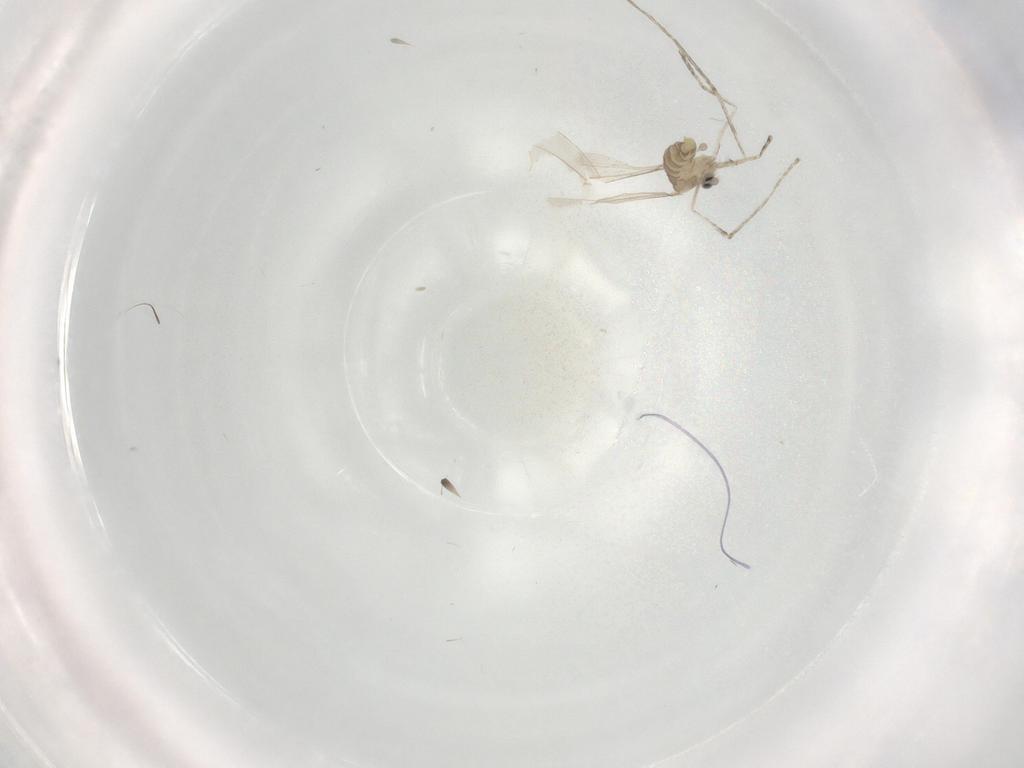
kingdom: Animalia
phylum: Arthropoda
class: Insecta
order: Diptera
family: Cecidomyiidae
